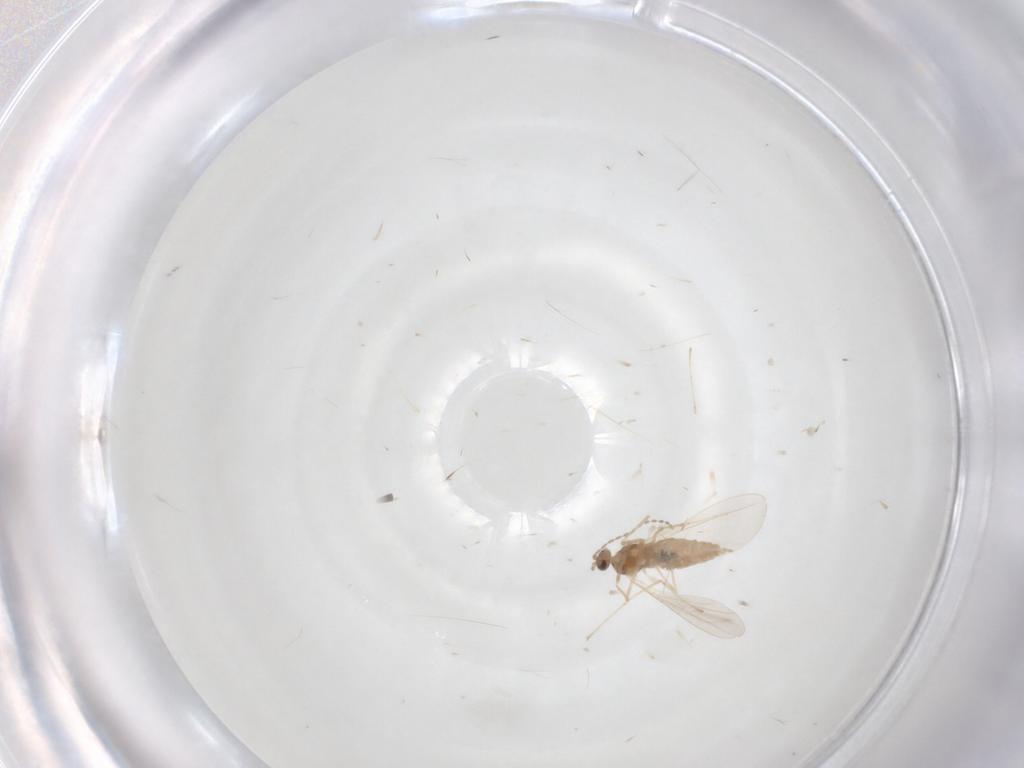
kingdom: Animalia
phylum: Arthropoda
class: Insecta
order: Diptera
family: Cecidomyiidae
